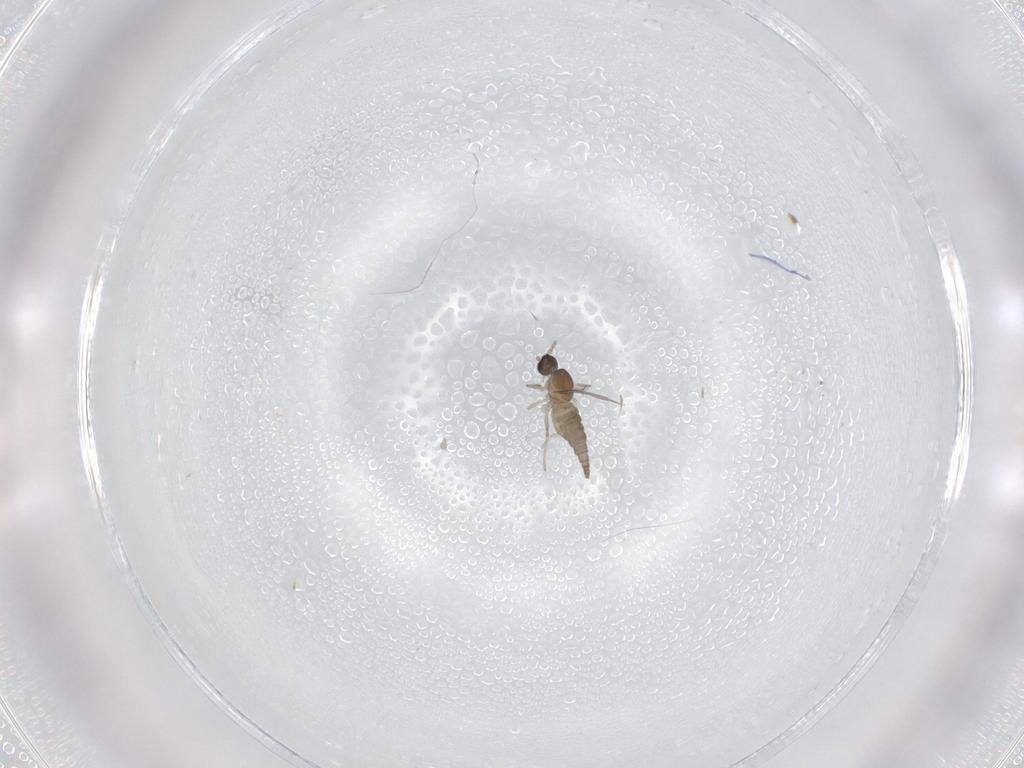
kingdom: Animalia
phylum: Arthropoda
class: Insecta
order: Diptera
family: Cecidomyiidae
